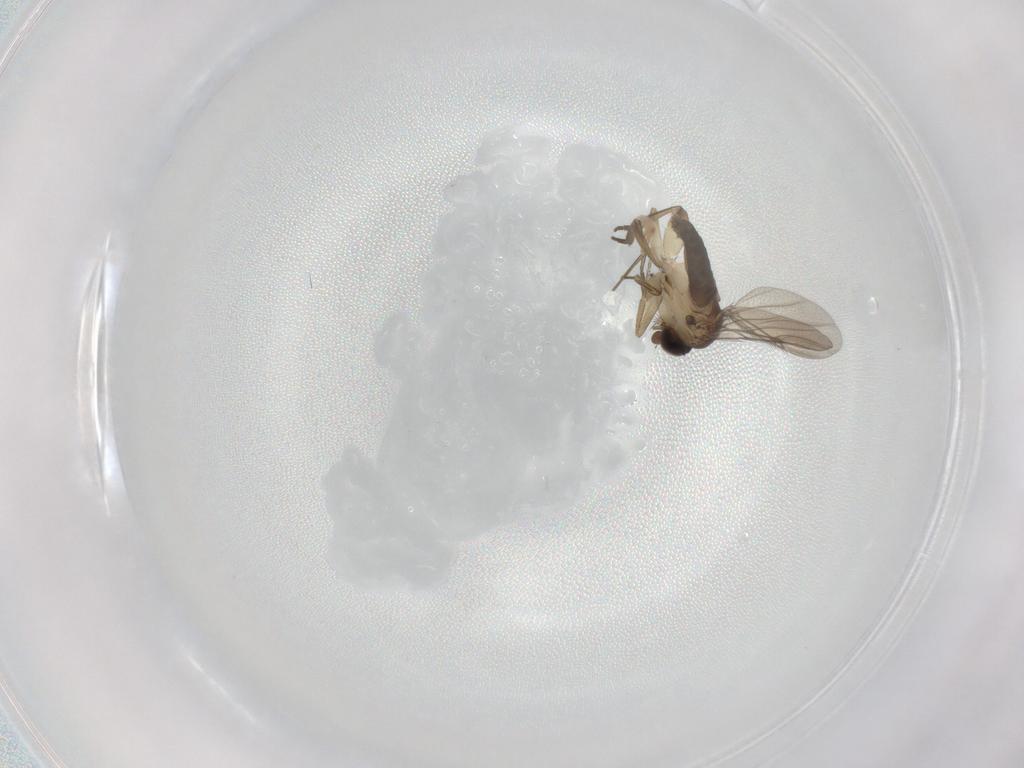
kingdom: Animalia
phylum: Arthropoda
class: Insecta
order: Diptera
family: Phoridae
